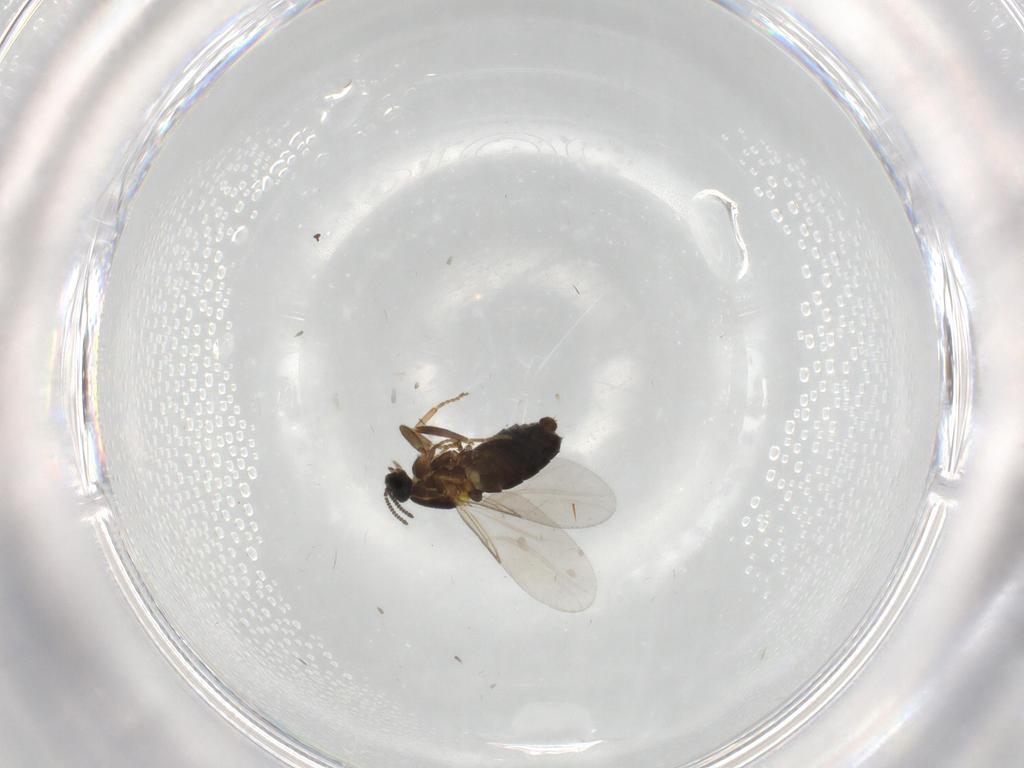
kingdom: Animalia
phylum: Arthropoda
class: Insecta
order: Diptera
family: Scatopsidae
